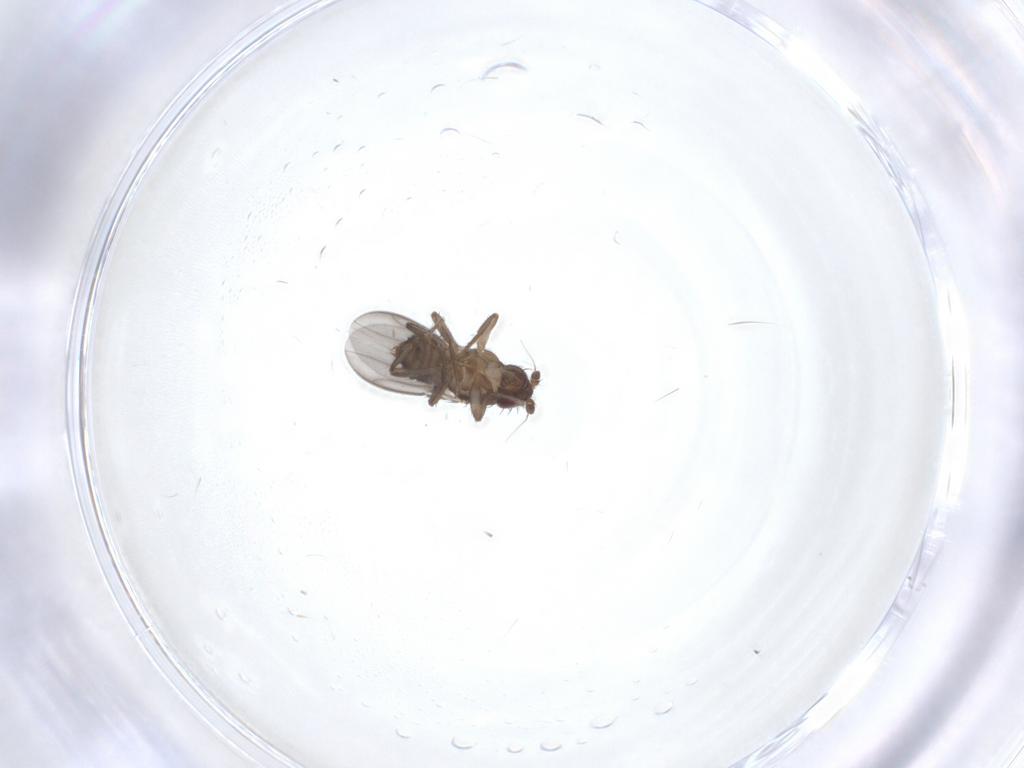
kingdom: Animalia
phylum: Arthropoda
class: Insecta
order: Diptera
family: Sphaeroceridae
